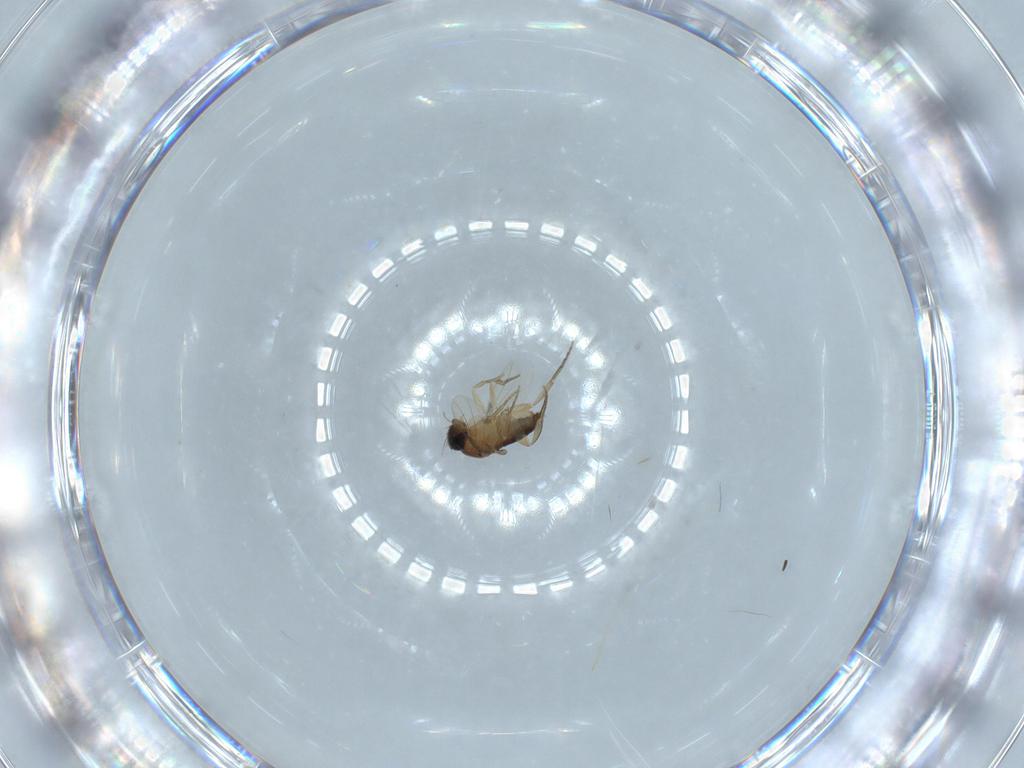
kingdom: Animalia
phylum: Arthropoda
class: Insecta
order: Diptera
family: Phoridae
